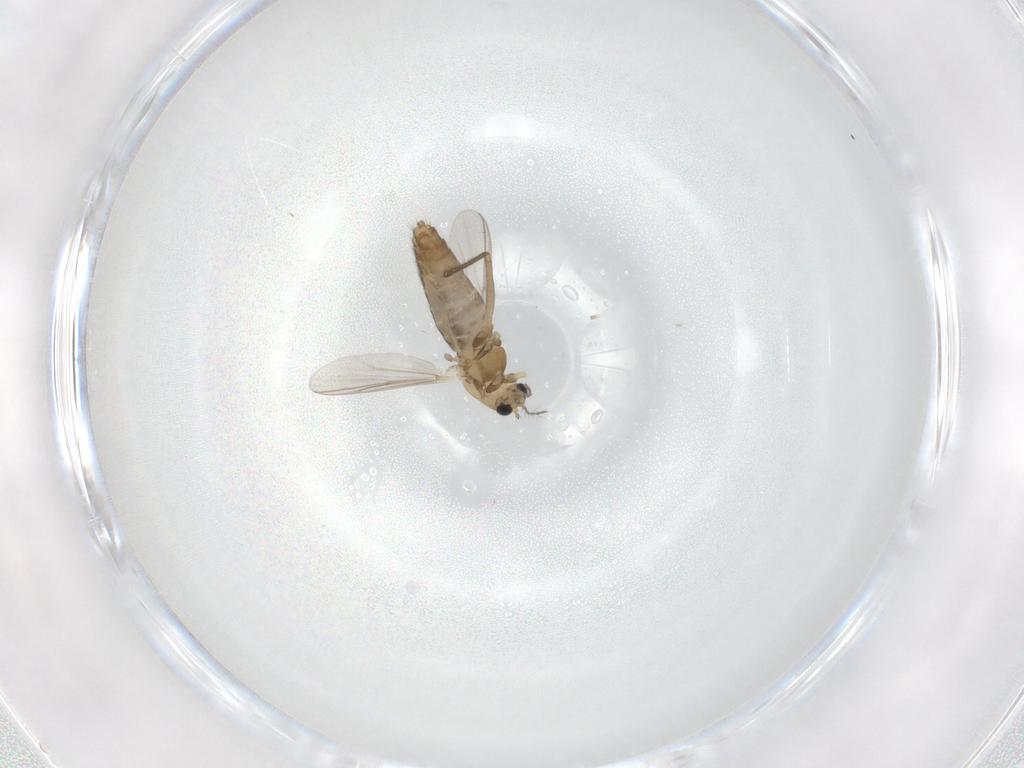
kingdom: Animalia
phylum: Arthropoda
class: Insecta
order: Diptera
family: Chironomidae
